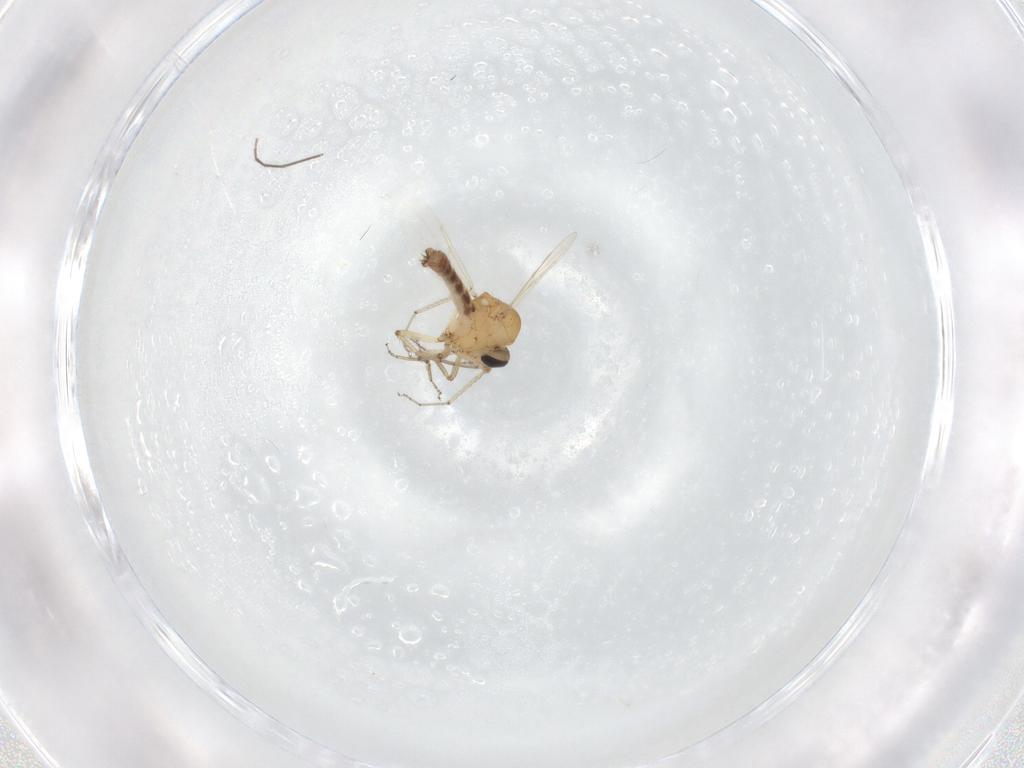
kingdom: Animalia
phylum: Arthropoda
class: Insecta
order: Diptera
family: Ceratopogonidae
